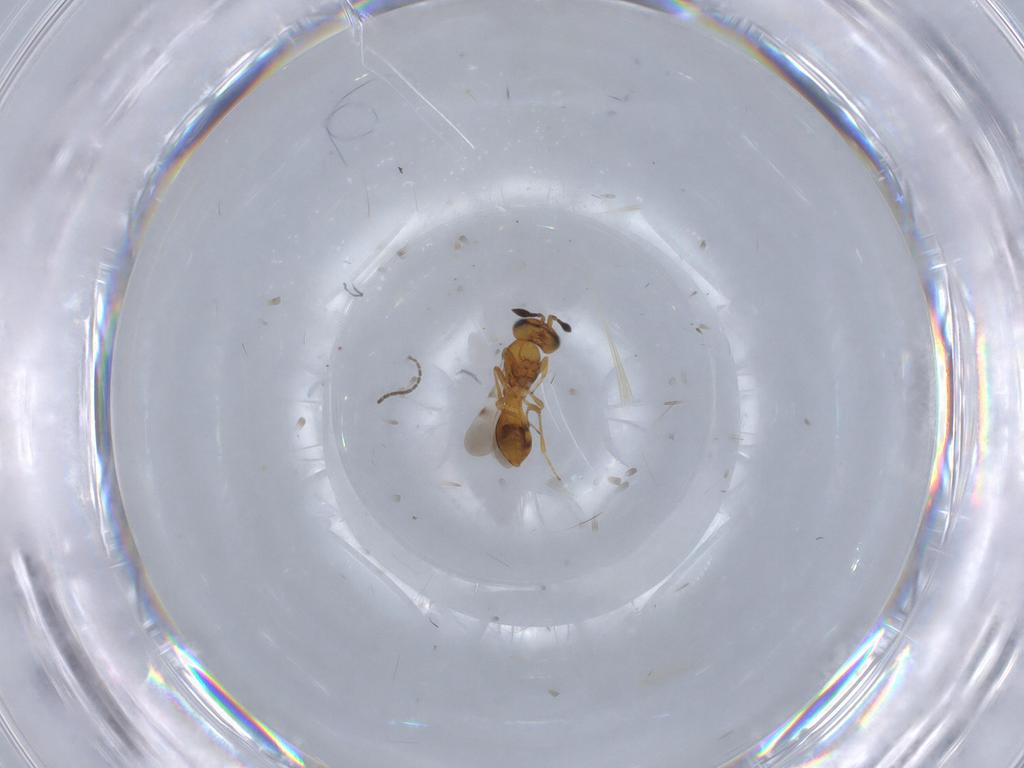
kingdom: Animalia
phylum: Arthropoda
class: Insecta
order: Hymenoptera
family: Scelionidae
